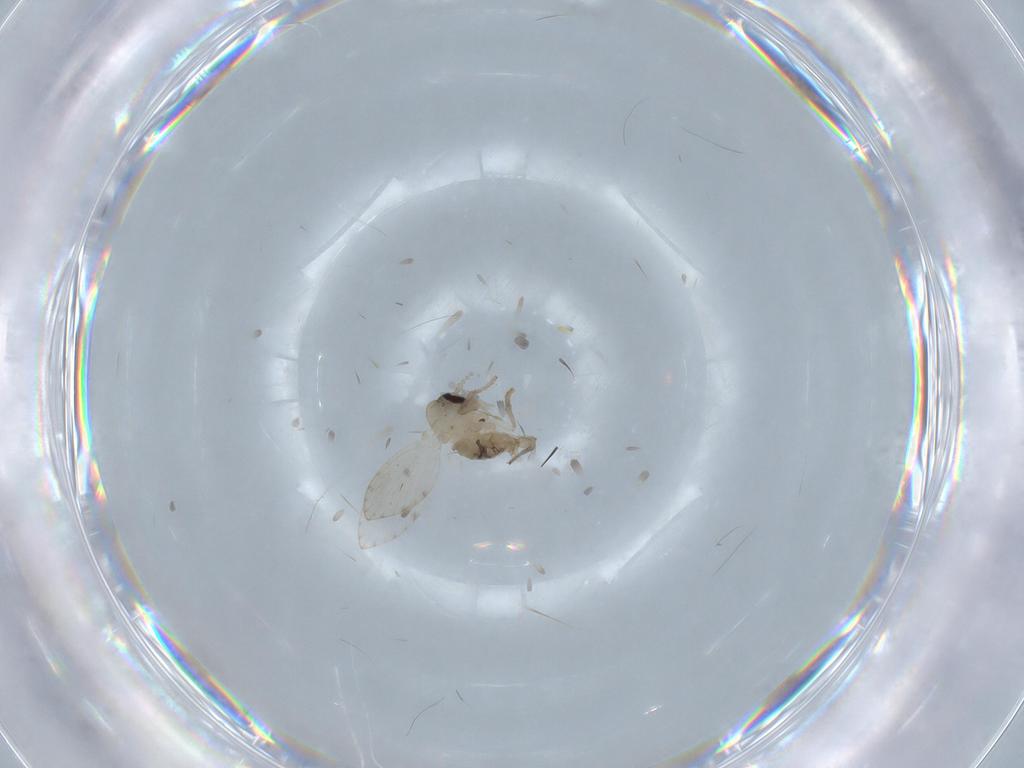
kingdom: Animalia
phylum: Arthropoda
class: Insecta
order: Diptera
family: Psychodidae
